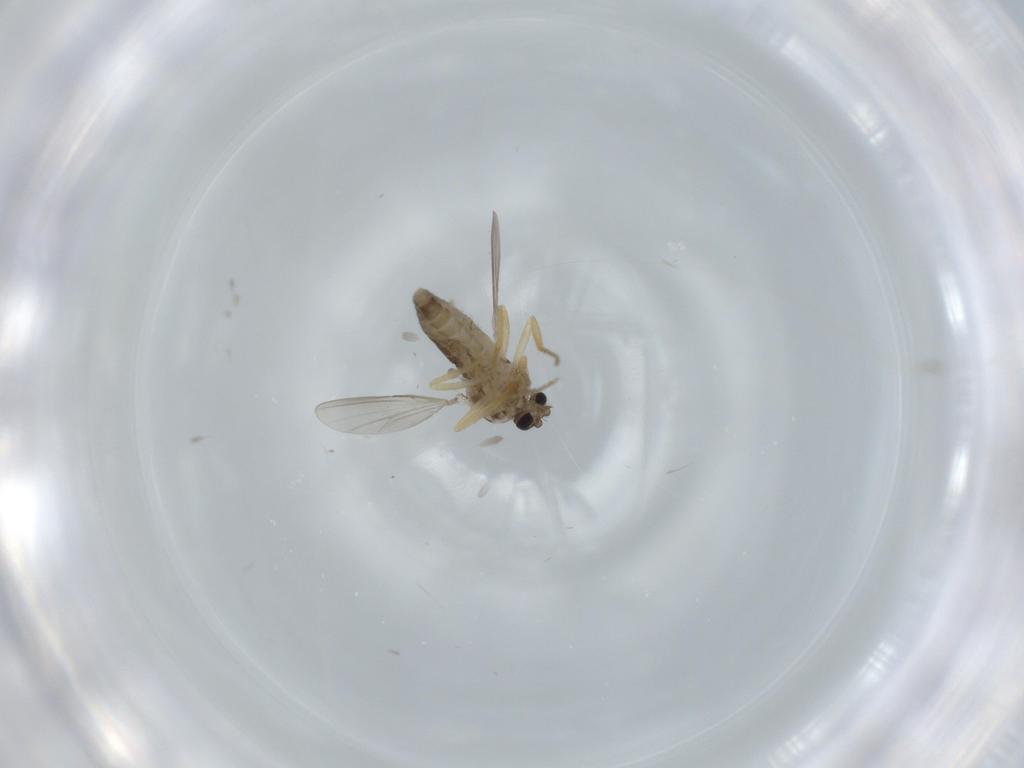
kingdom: Animalia
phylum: Arthropoda
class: Insecta
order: Diptera
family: Ceratopogonidae
